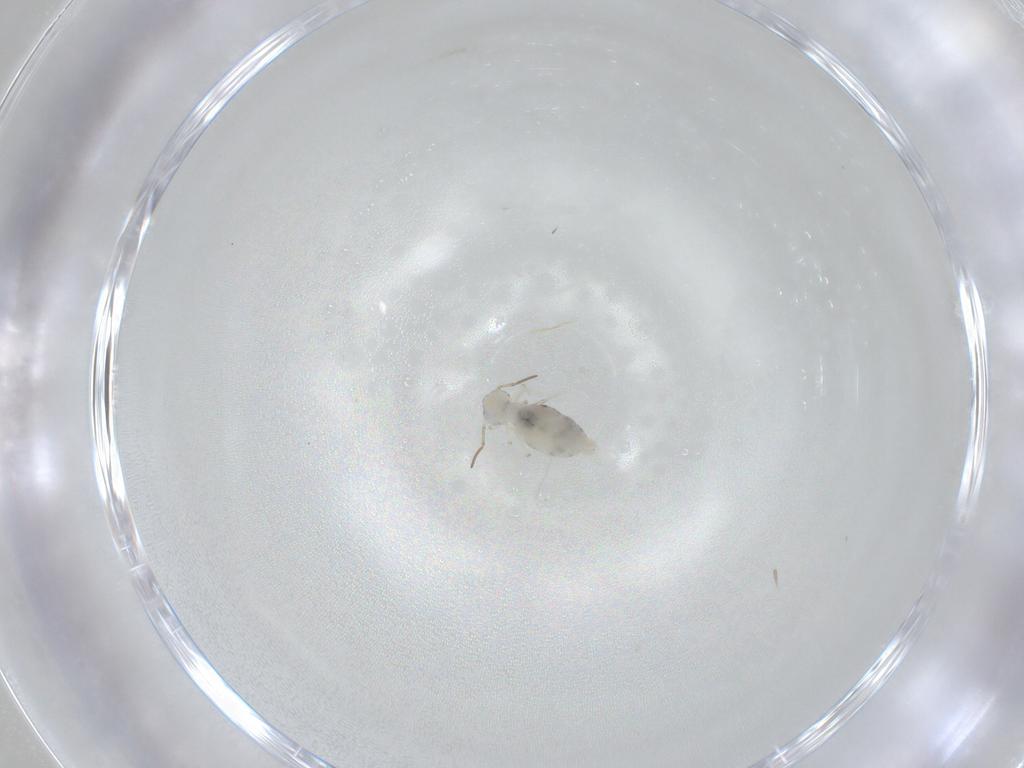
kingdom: Animalia
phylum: Arthropoda
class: Collembola
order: Symphypleona
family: Bourletiellidae
